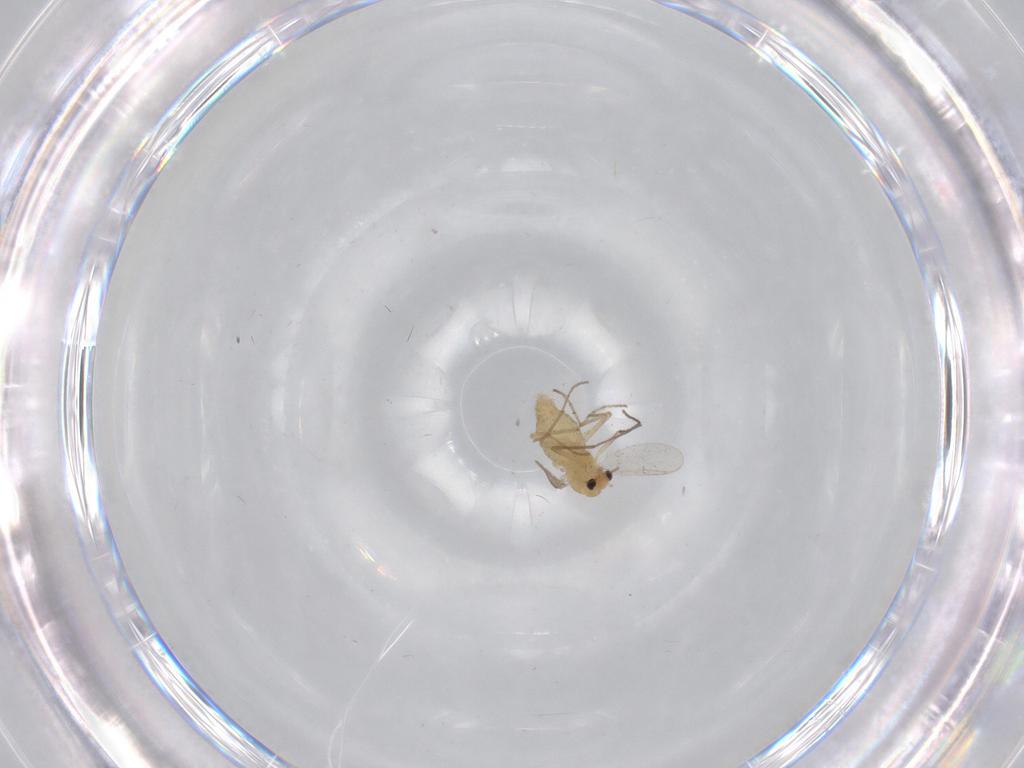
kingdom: Animalia
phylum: Arthropoda
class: Insecta
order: Diptera
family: Chironomidae
